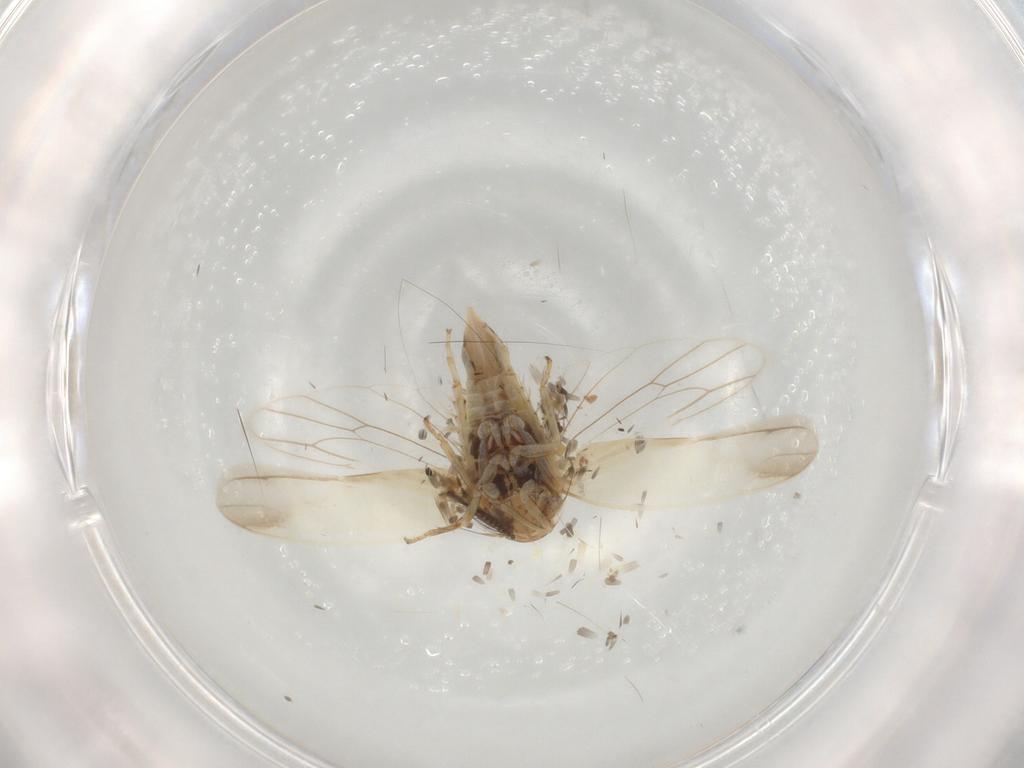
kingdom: Animalia
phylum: Arthropoda
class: Insecta
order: Hemiptera
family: Cicadellidae
